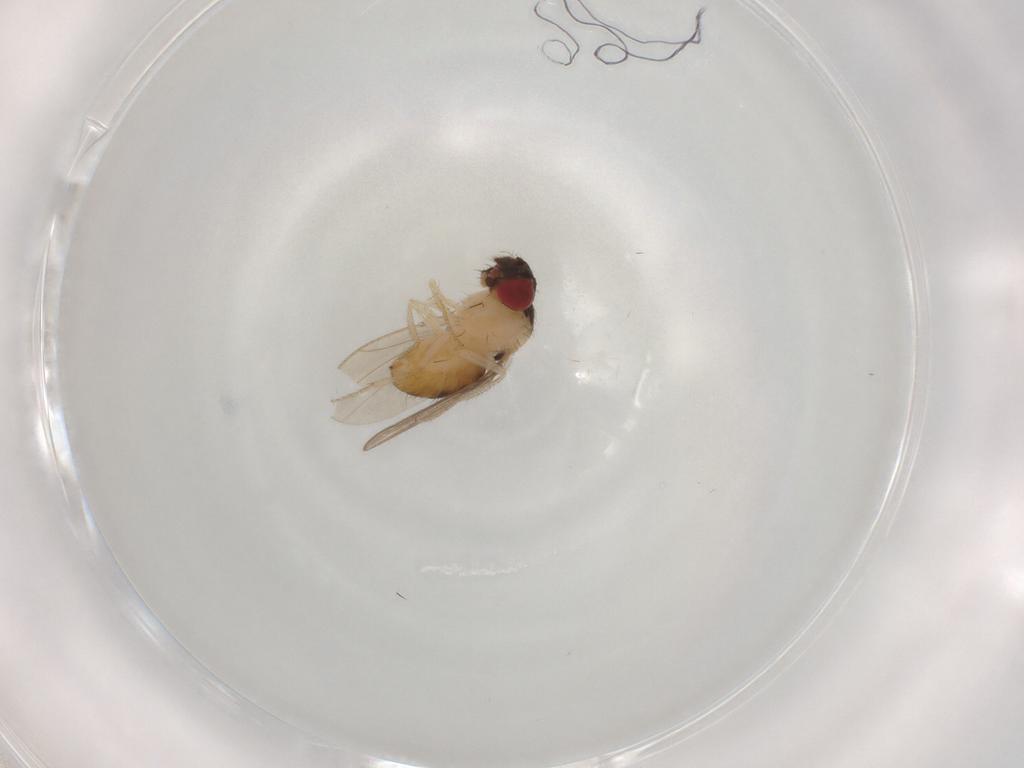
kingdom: Animalia
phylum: Arthropoda
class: Insecta
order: Diptera
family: Drosophilidae
